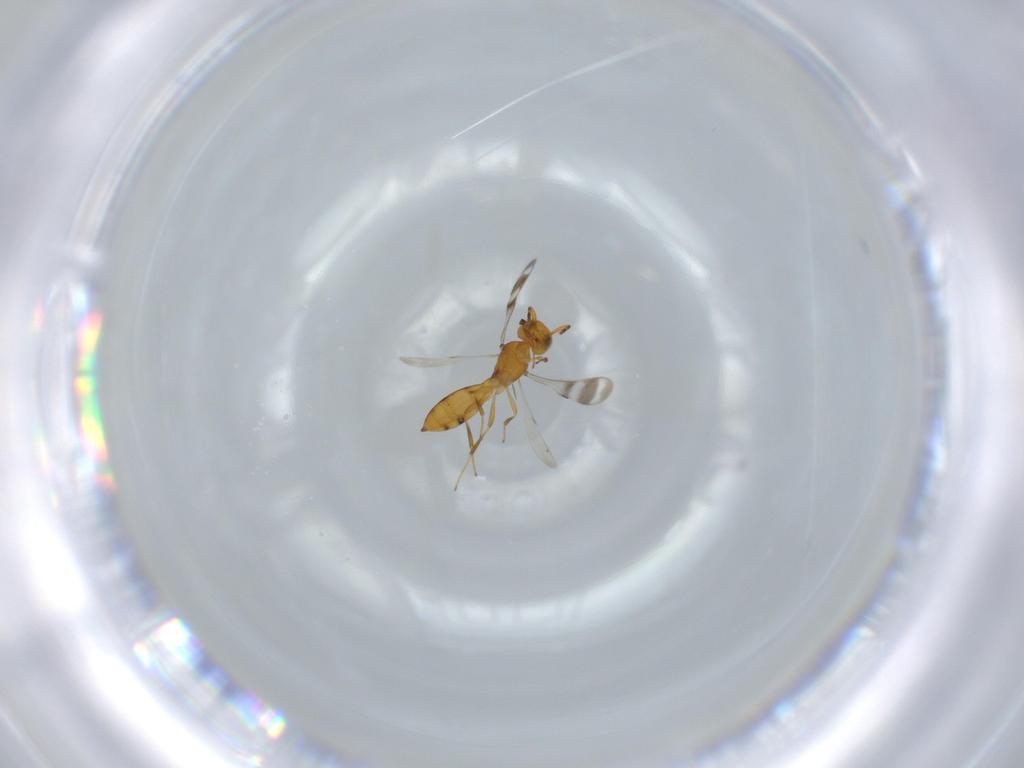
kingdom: Animalia
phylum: Arthropoda
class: Insecta
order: Hymenoptera
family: Scelionidae
